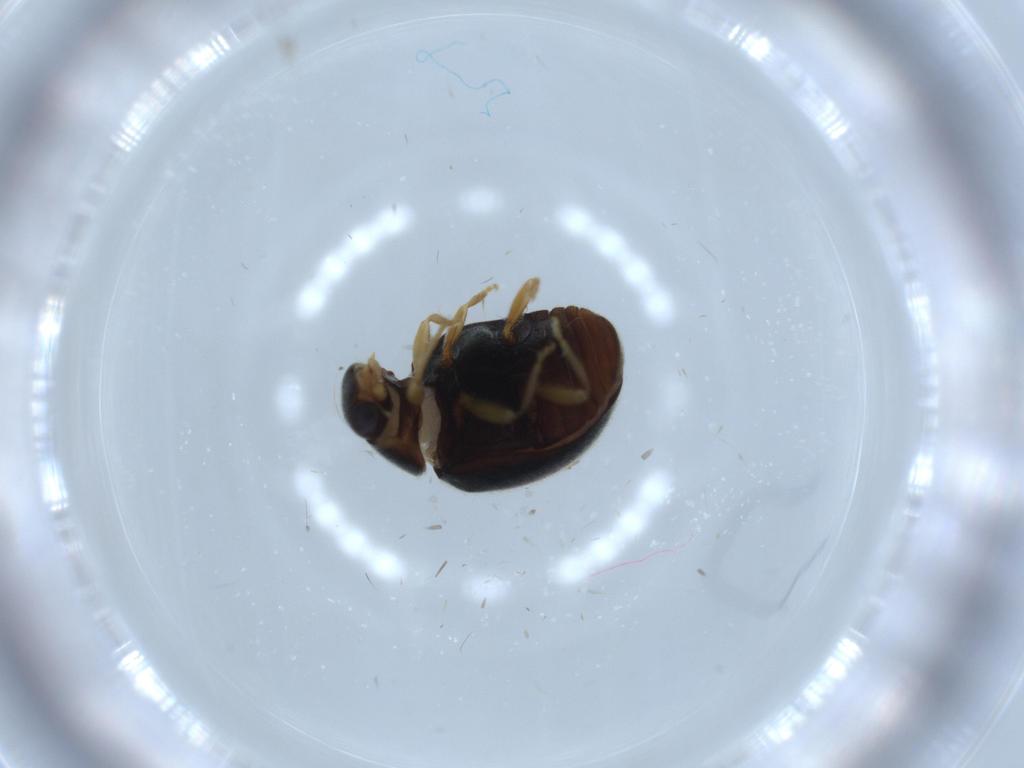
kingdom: Animalia
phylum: Arthropoda
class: Insecta
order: Coleoptera
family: Coccinellidae
